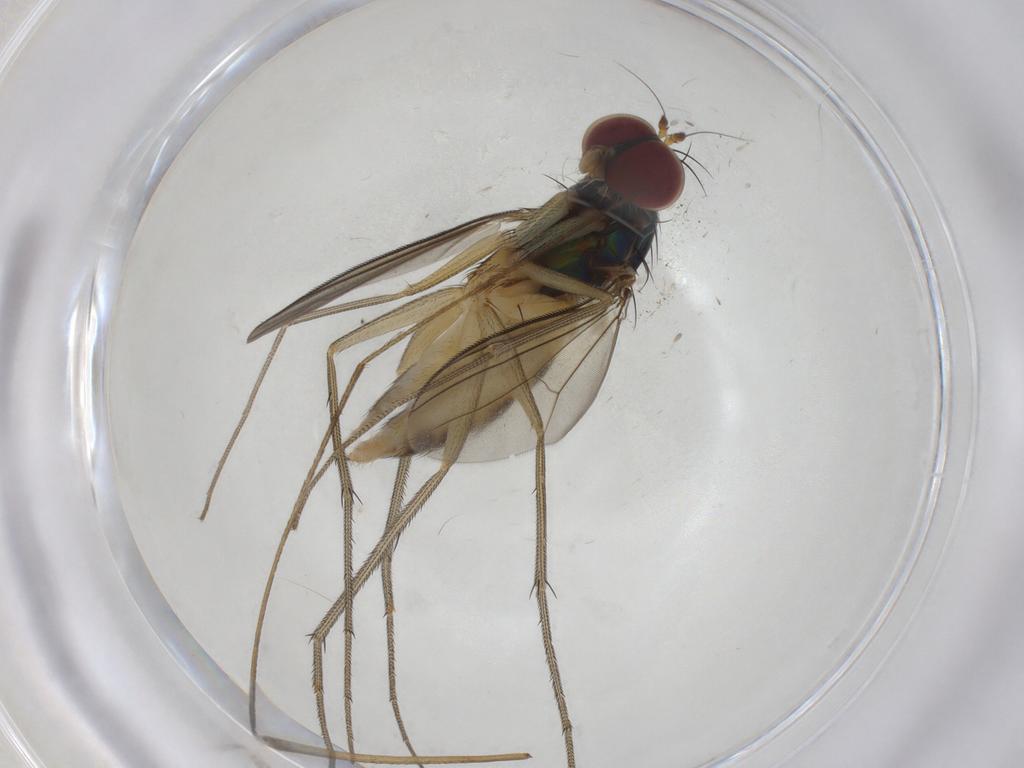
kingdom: Animalia
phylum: Arthropoda
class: Insecta
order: Diptera
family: Dolichopodidae
